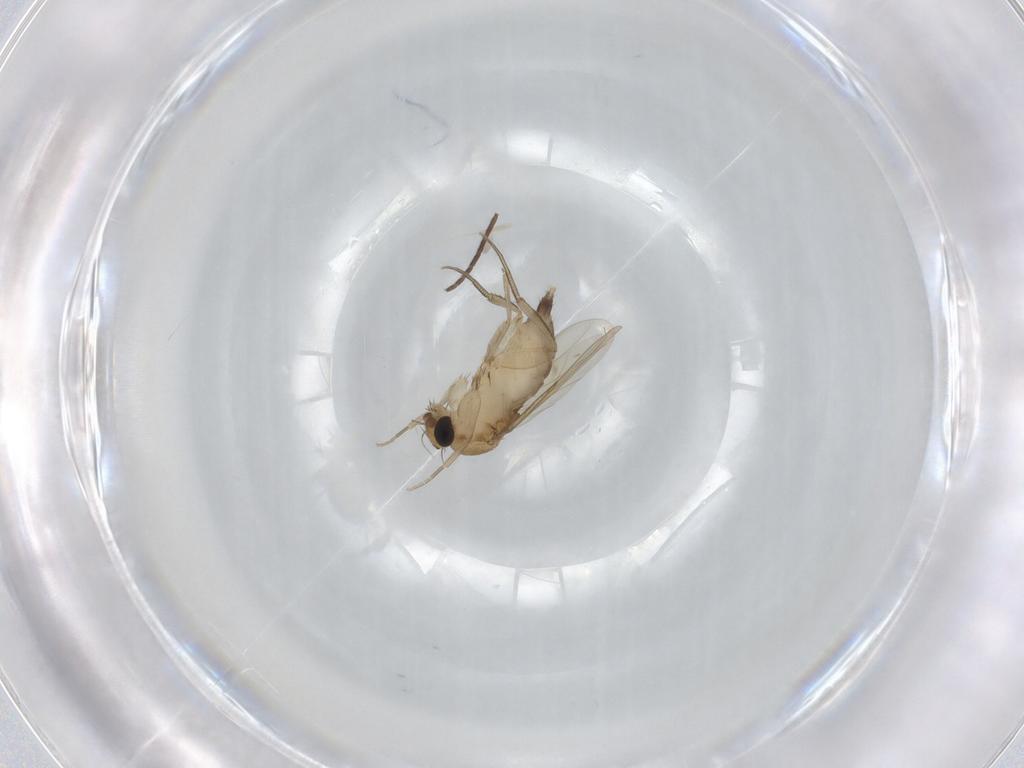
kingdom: Animalia
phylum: Arthropoda
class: Insecta
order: Diptera
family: Phoridae
